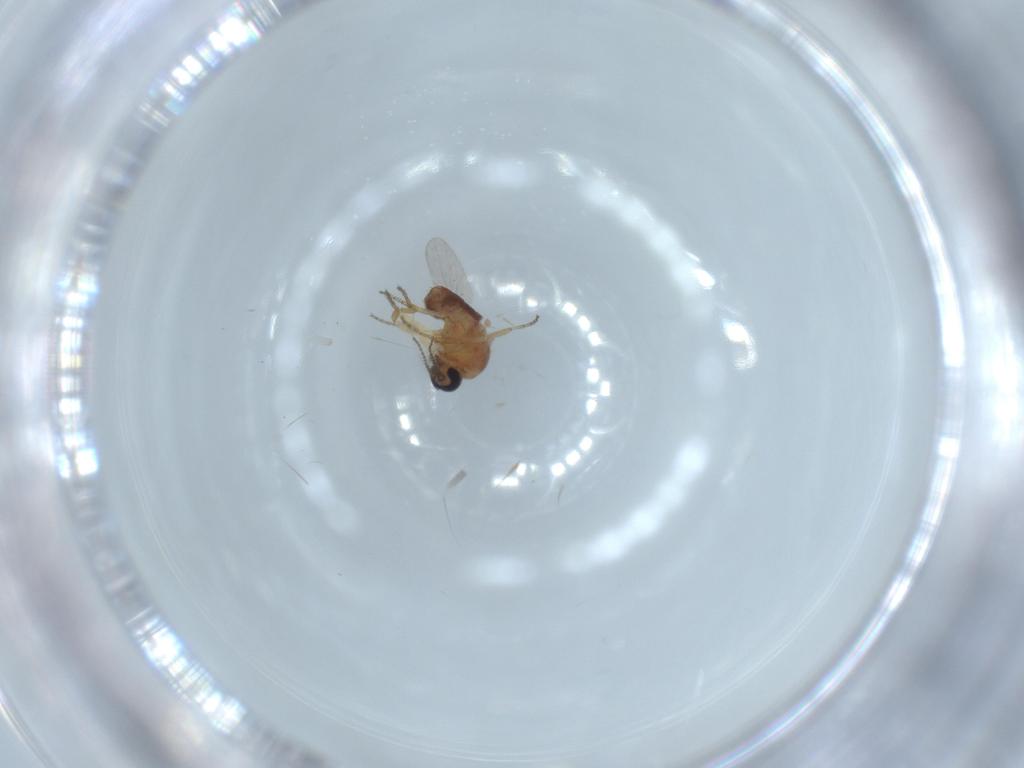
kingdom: Animalia
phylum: Arthropoda
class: Insecta
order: Diptera
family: Ceratopogonidae
